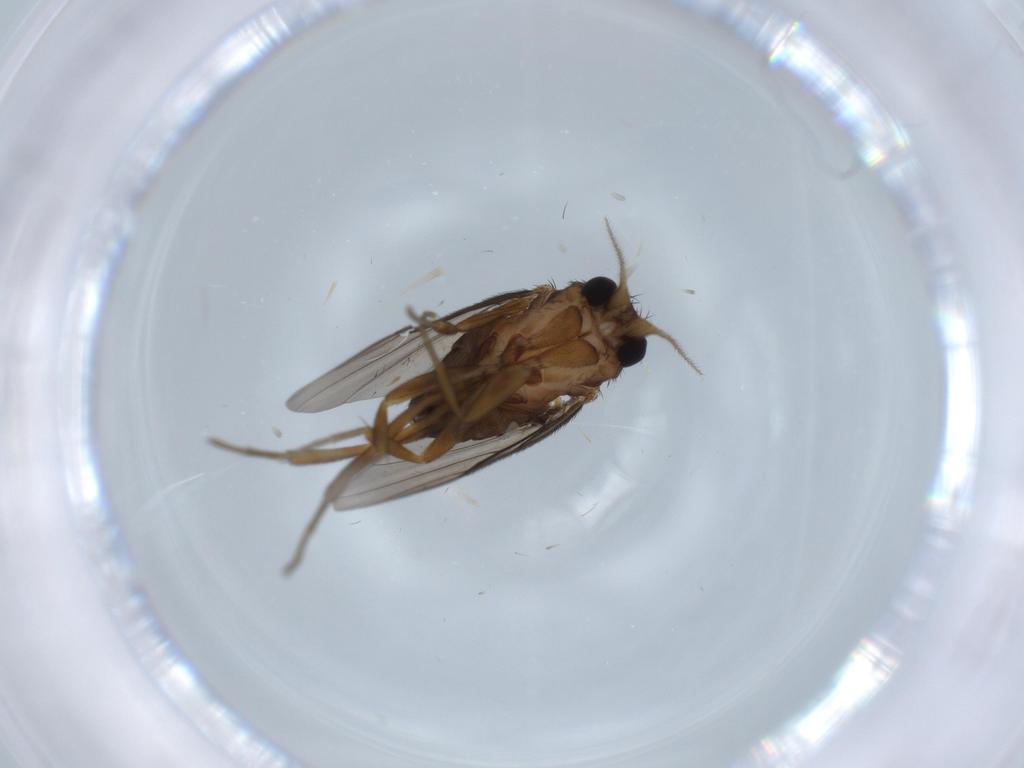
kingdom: Animalia
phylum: Arthropoda
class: Insecta
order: Diptera
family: Phoridae
